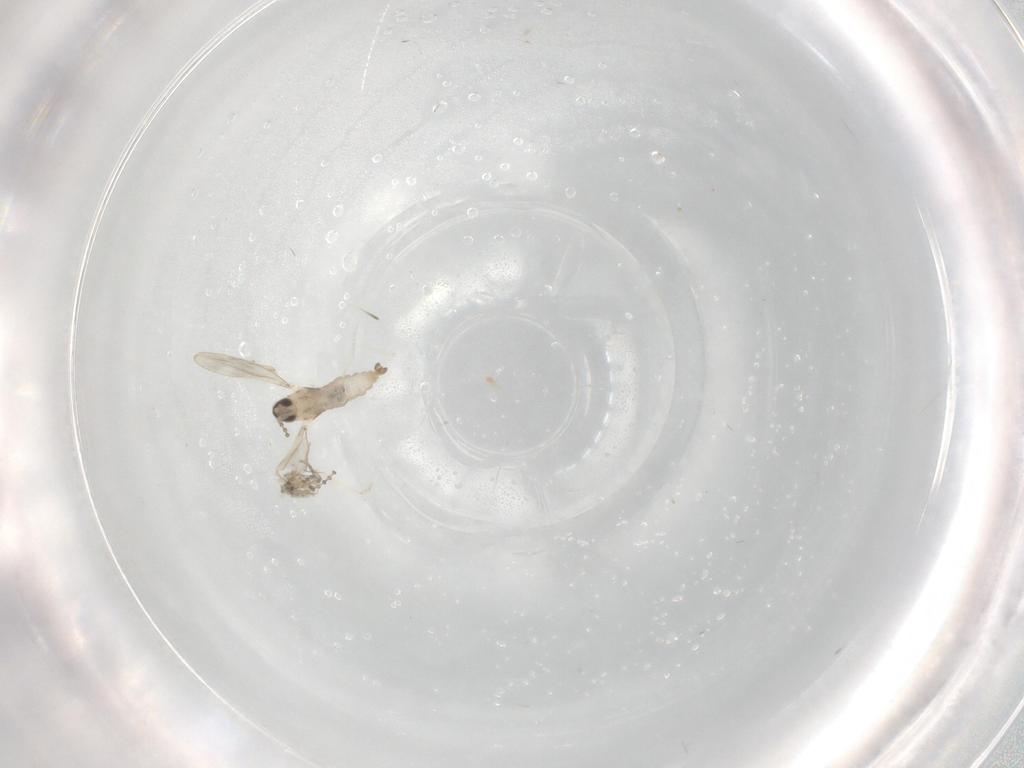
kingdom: Animalia
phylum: Arthropoda
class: Insecta
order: Diptera
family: Cecidomyiidae
